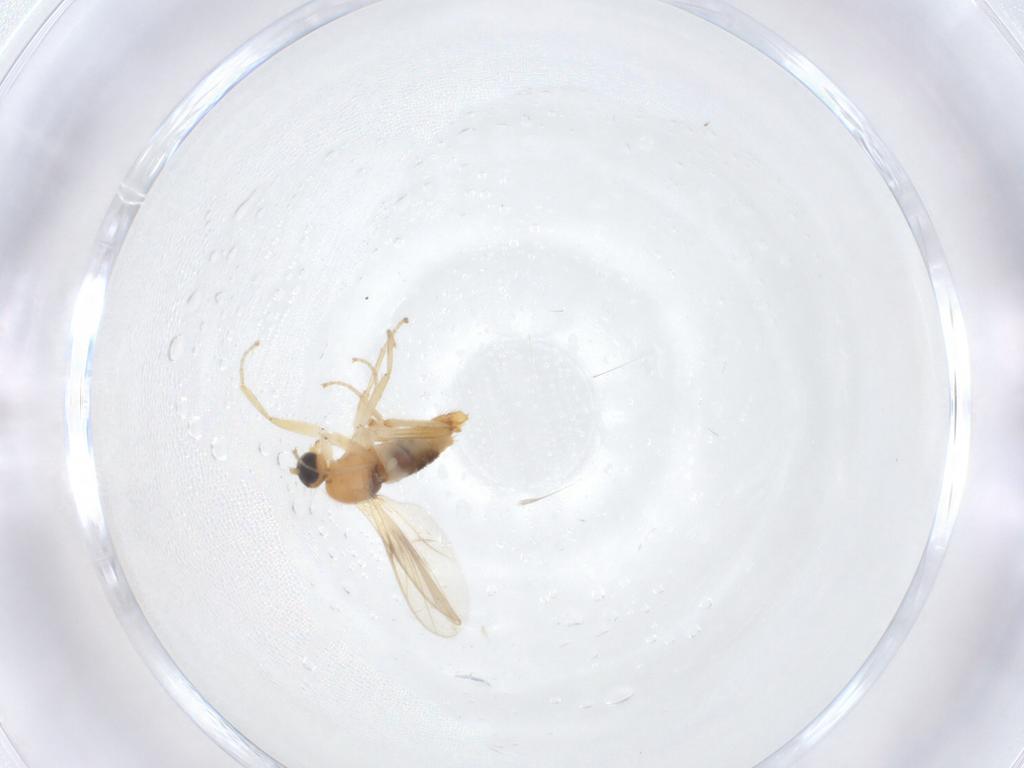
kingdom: Animalia
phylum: Arthropoda
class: Insecta
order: Diptera
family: Hybotidae
